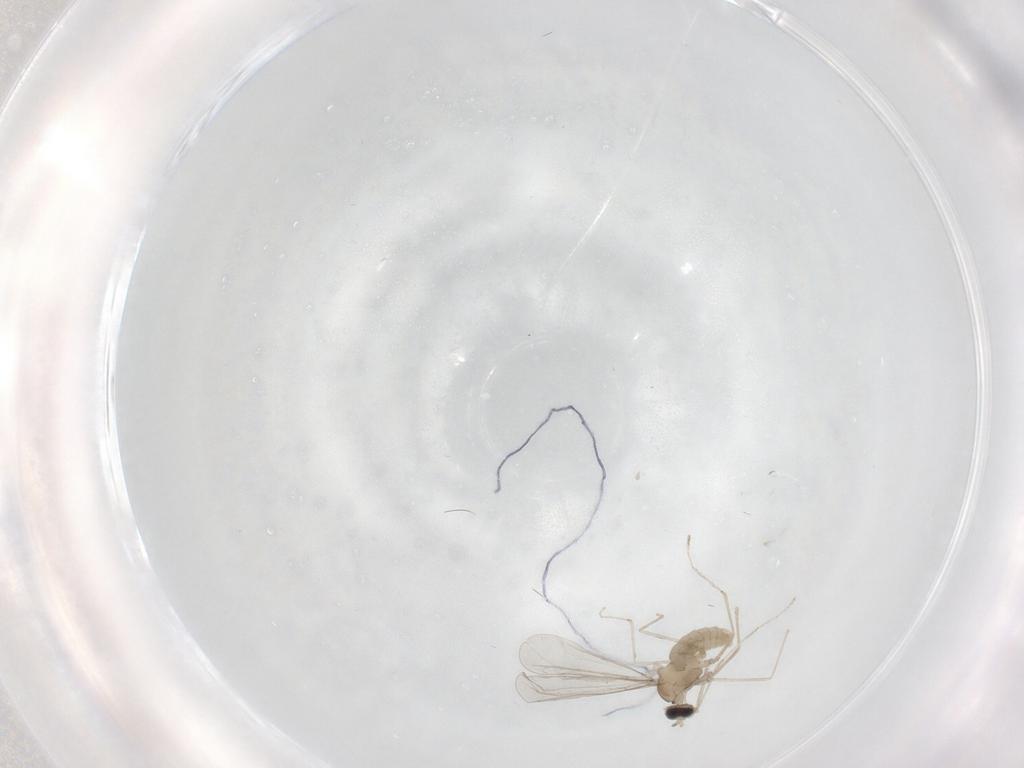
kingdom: Animalia
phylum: Arthropoda
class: Insecta
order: Diptera
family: Cecidomyiidae
